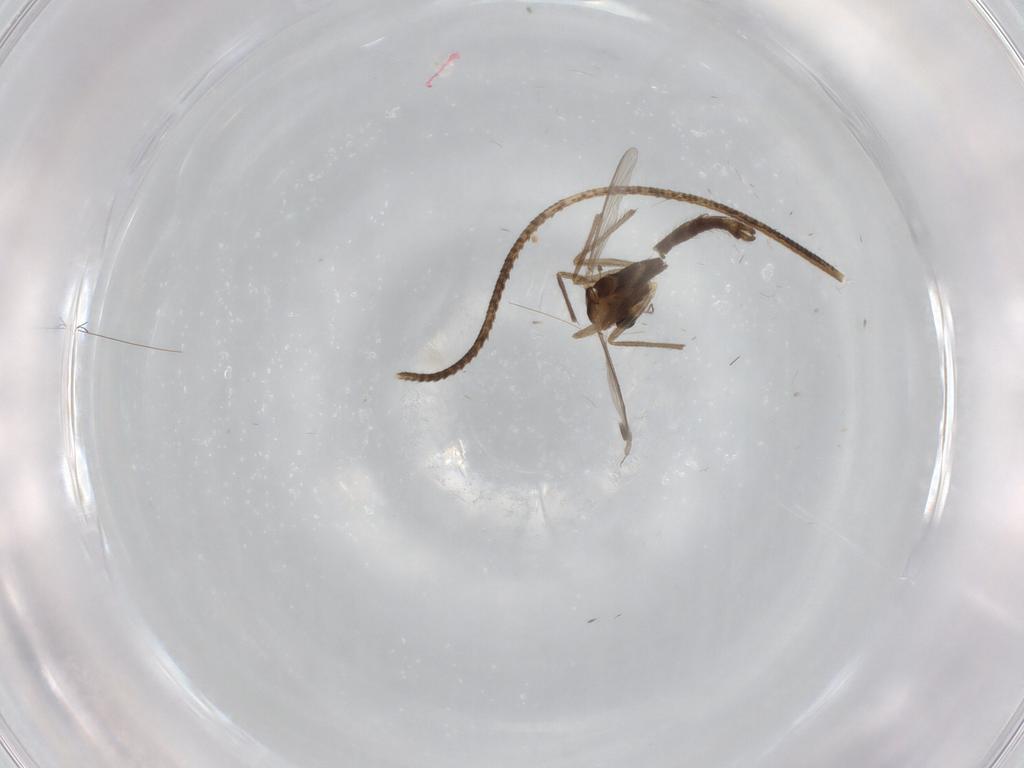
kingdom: Animalia
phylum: Arthropoda
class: Insecta
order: Diptera
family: Chironomidae
